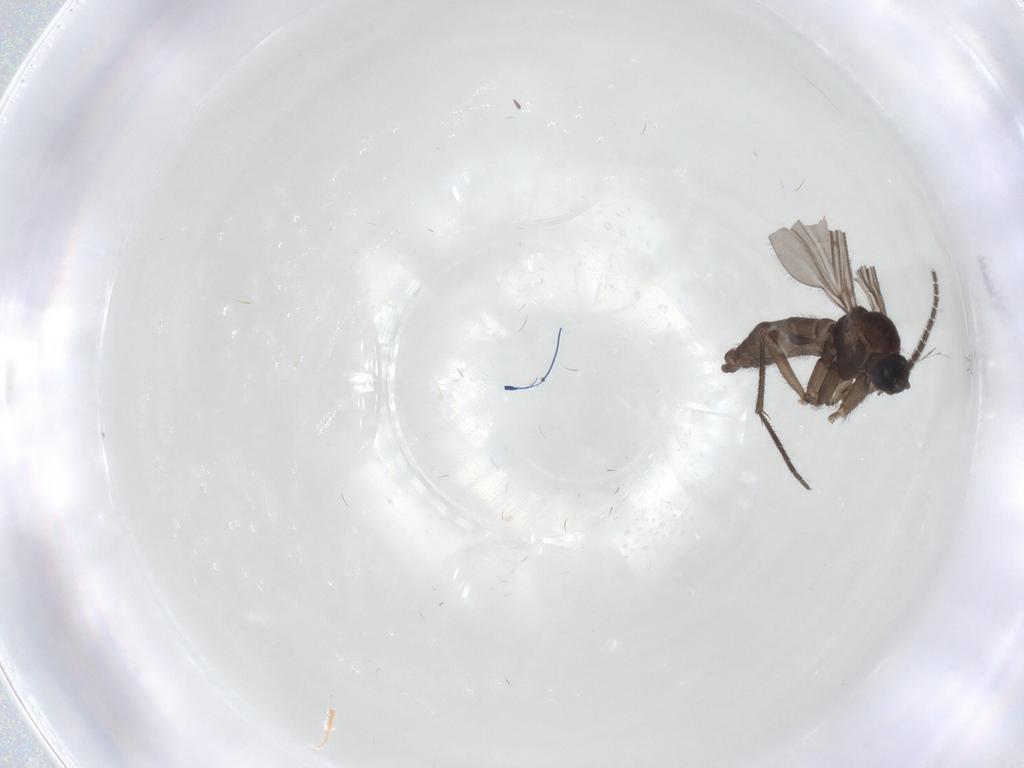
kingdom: Animalia
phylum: Arthropoda
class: Insecta
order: Diptera
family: Sciaridae
